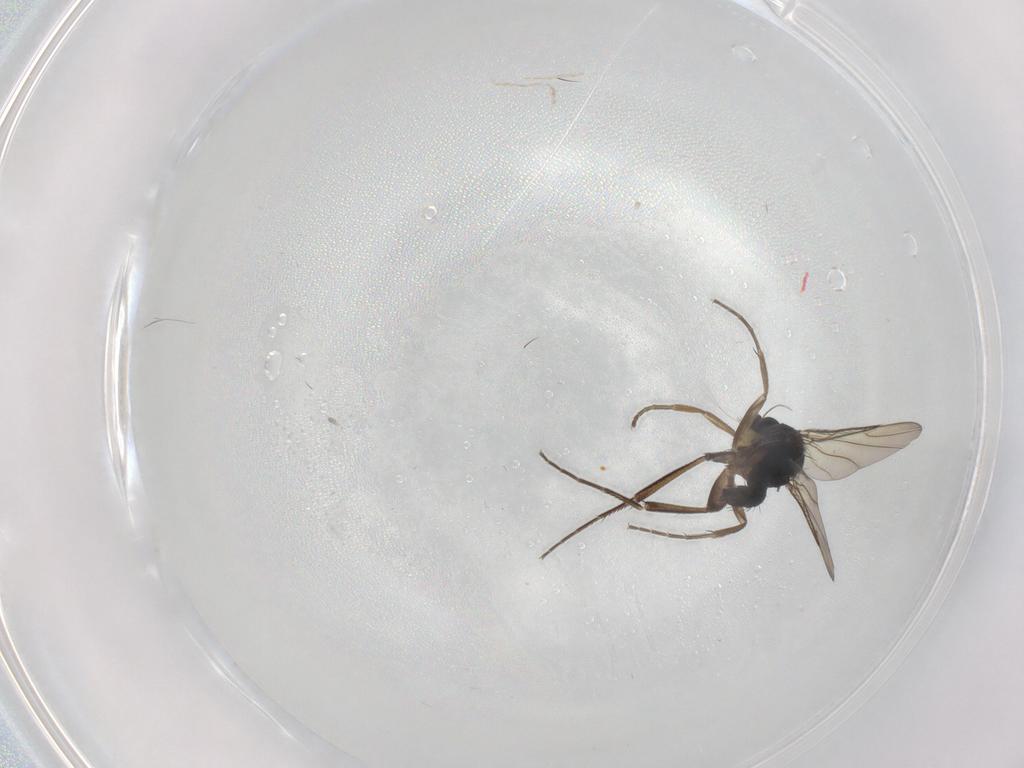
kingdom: Animalia
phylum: Arthropoda
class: Insecta
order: Diptera
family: Phoridae
